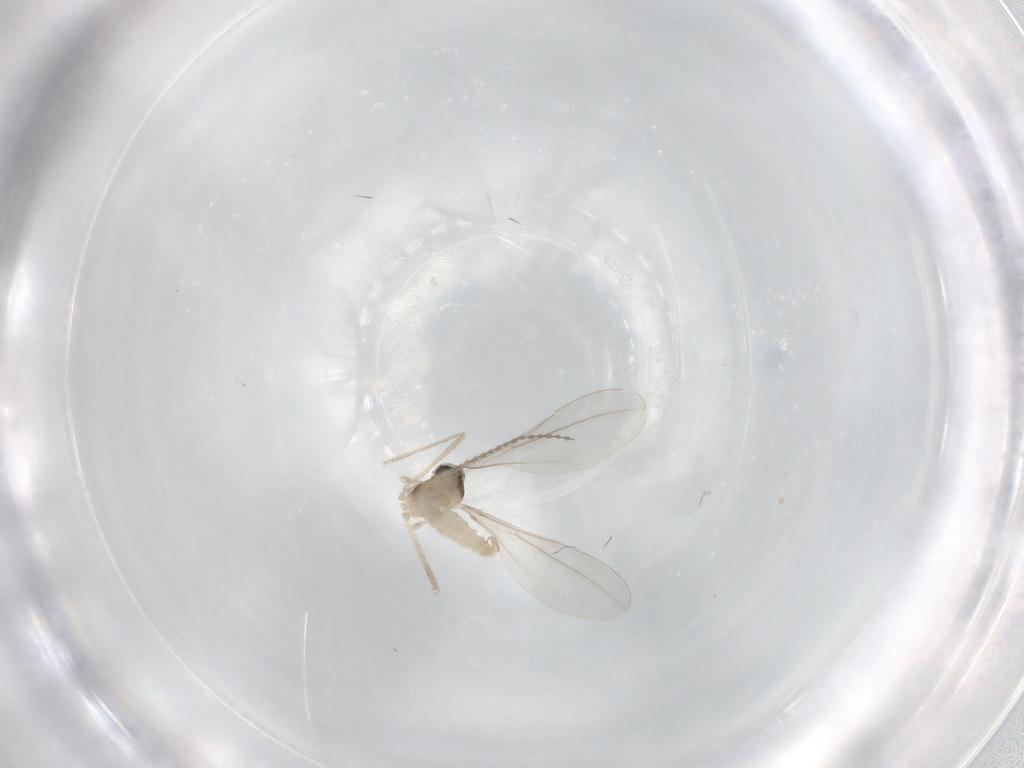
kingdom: Animalia
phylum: Arthropoda
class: Insecta
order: Diptera
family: Cecidomyiidae
